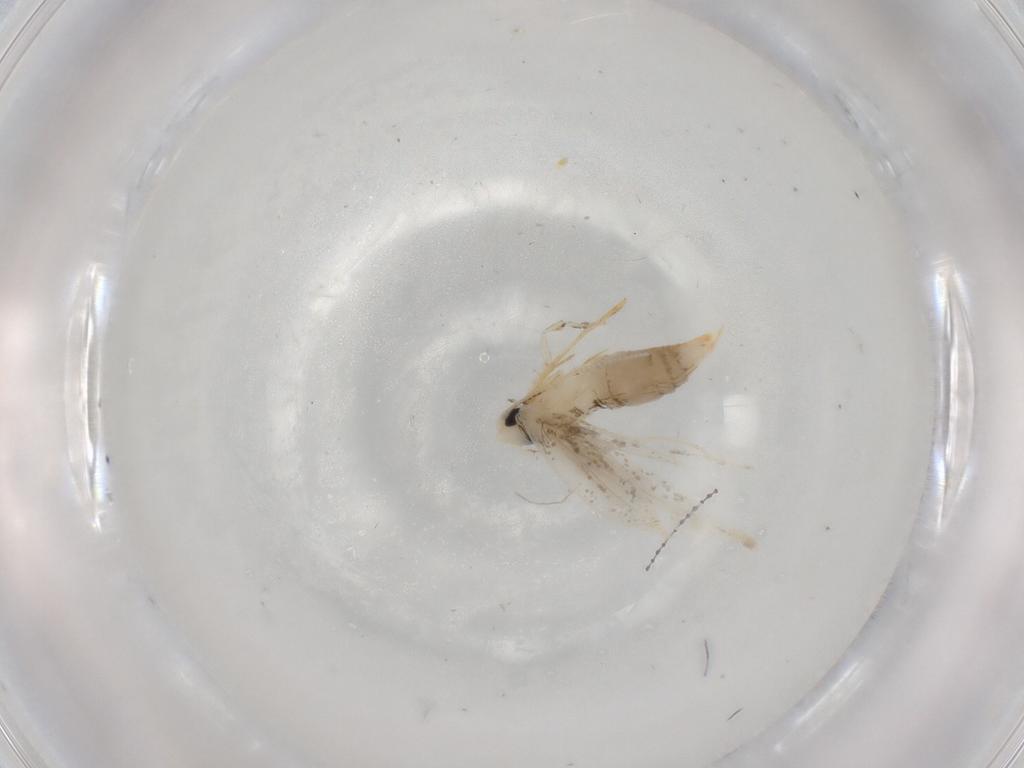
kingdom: Animalia
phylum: Arthropoda
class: Insecta
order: Lepidoptera
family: Tineidae
